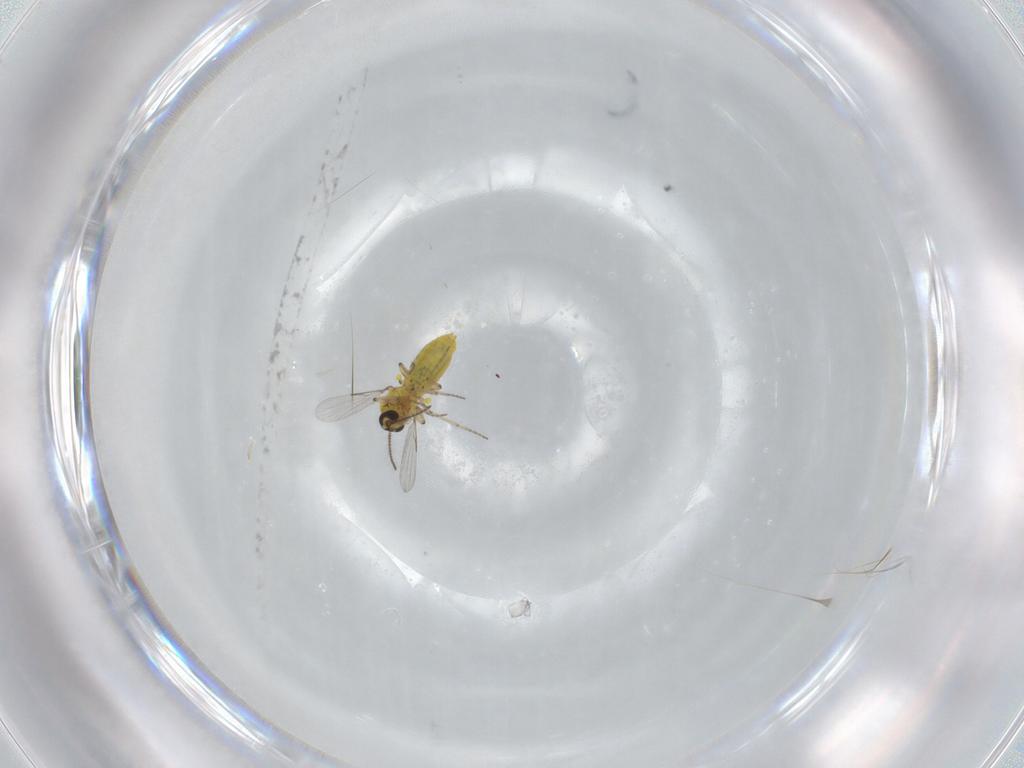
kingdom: Animalia
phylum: Arthropoda
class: Insecta
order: Diptera
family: Ceratopogonidae
